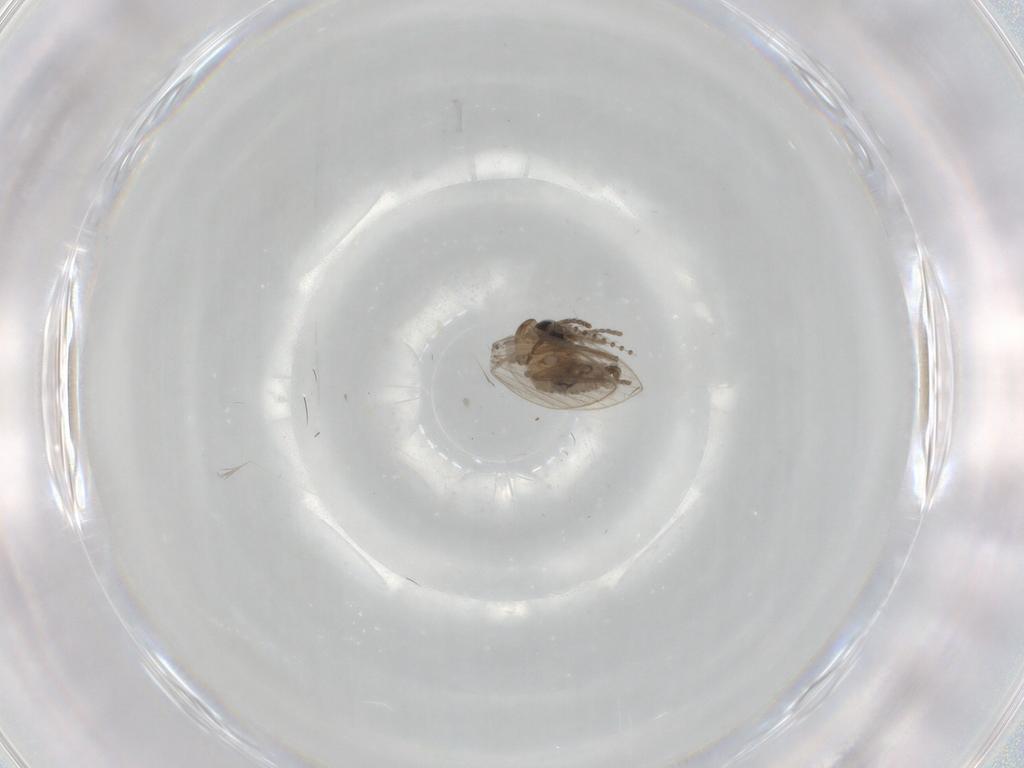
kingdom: Animalia
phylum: Arthropoda
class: Insecta
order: Diptera
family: Psychodidae
